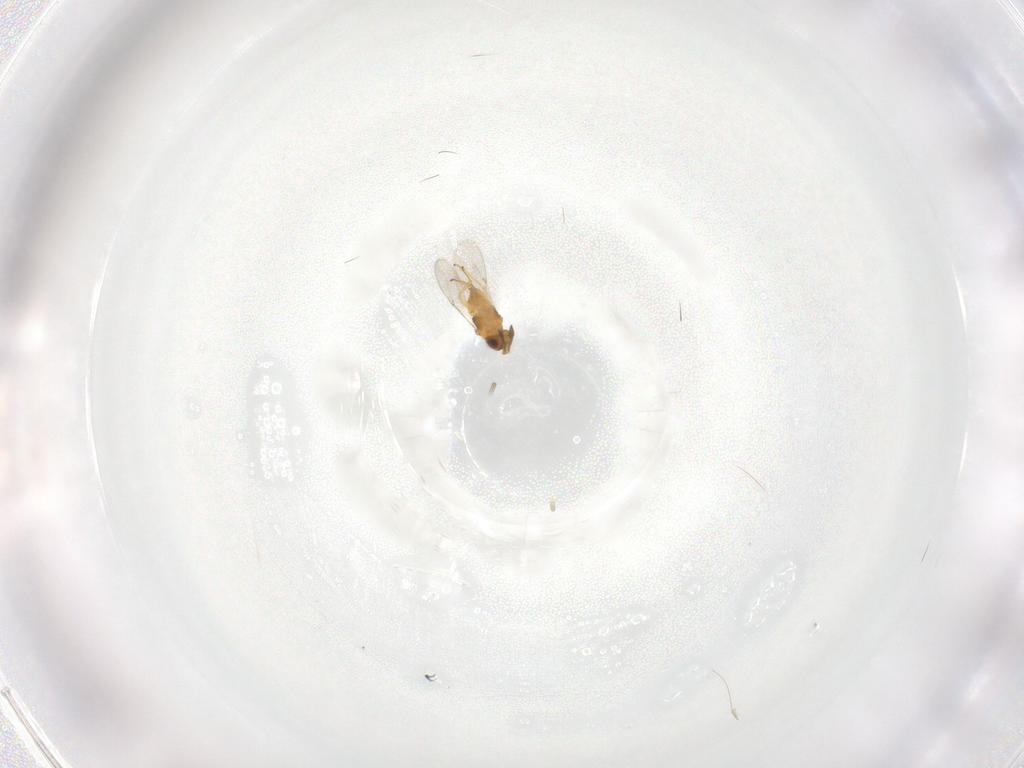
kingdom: Animalia
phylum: Arthropoda
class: Insecta
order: Hymenoptera
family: Encyrtidae
